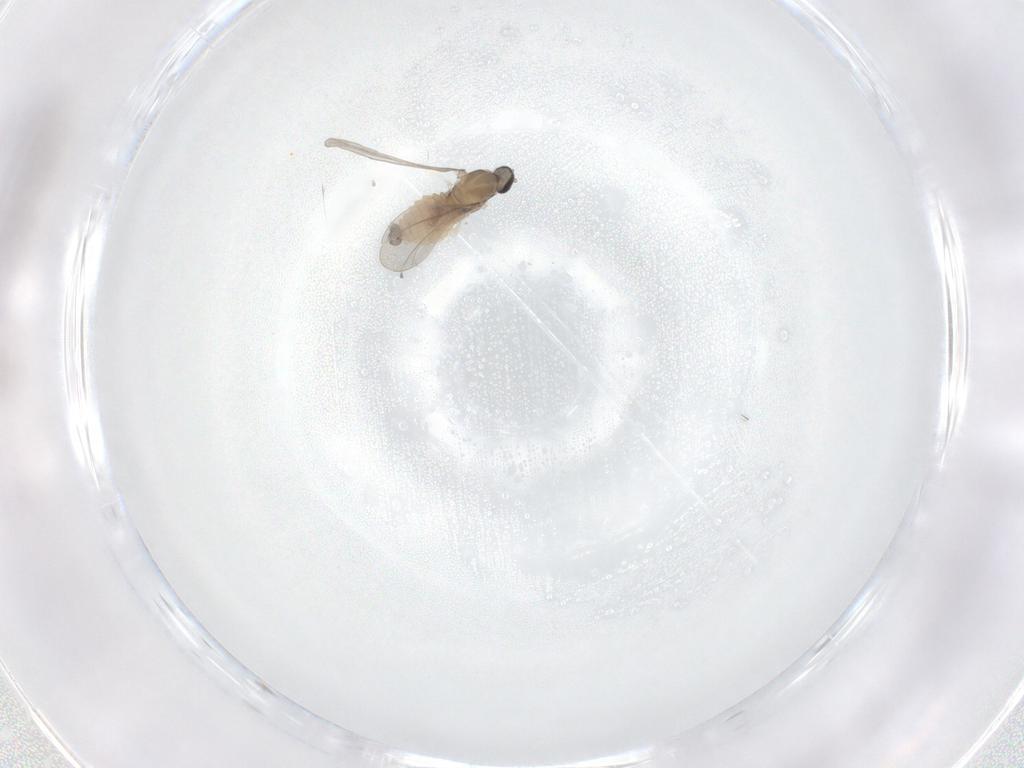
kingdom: Animalia
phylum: Arthropoda
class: Insecta
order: Diptera
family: Cecidomyiidae
